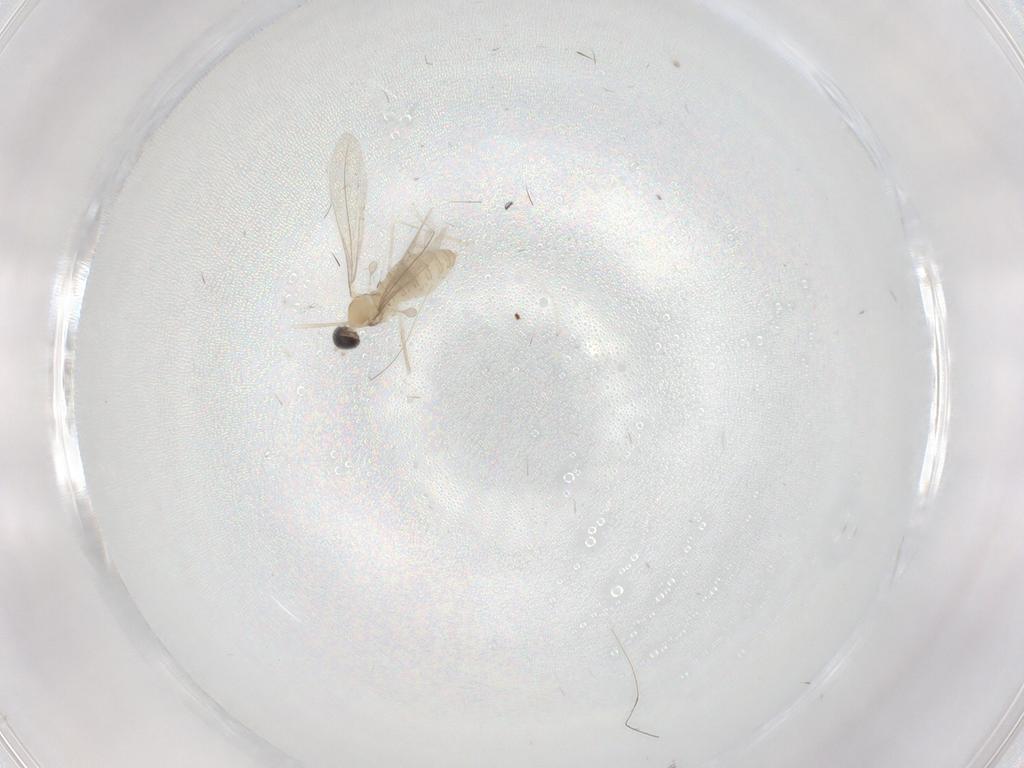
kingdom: Animalia
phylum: Arthropoda
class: Insecta
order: Diptera
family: Cecidomyiidae
